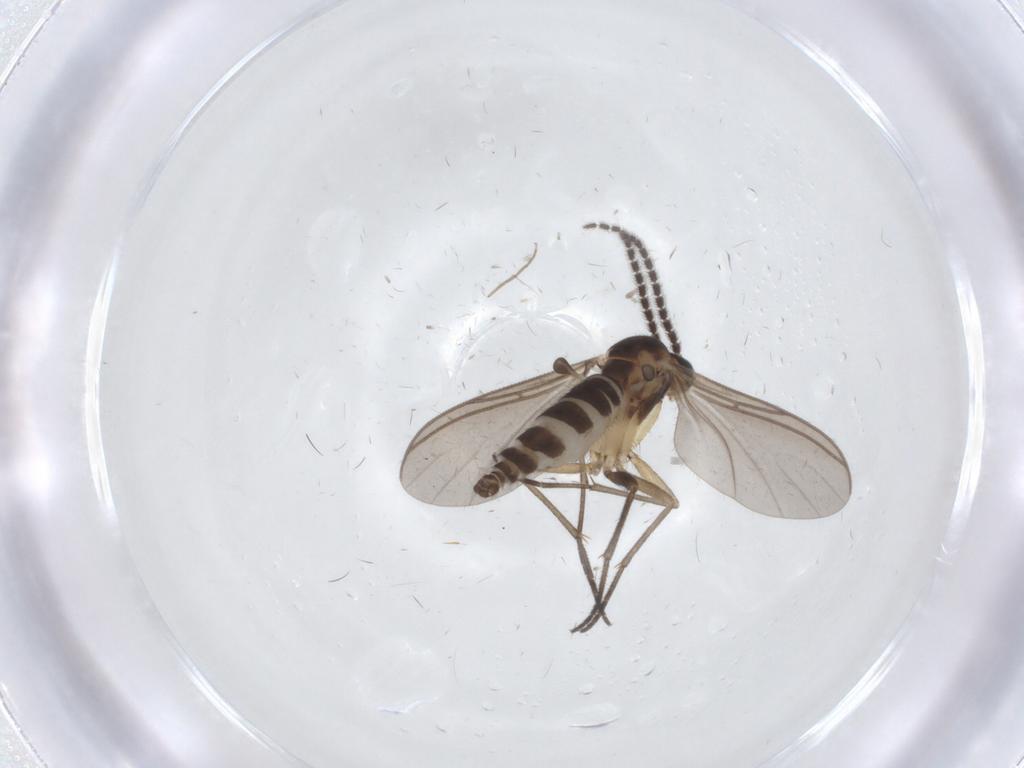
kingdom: Animalia
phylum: Arthropoda
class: Insecta
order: Diptera
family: Sciaridae
